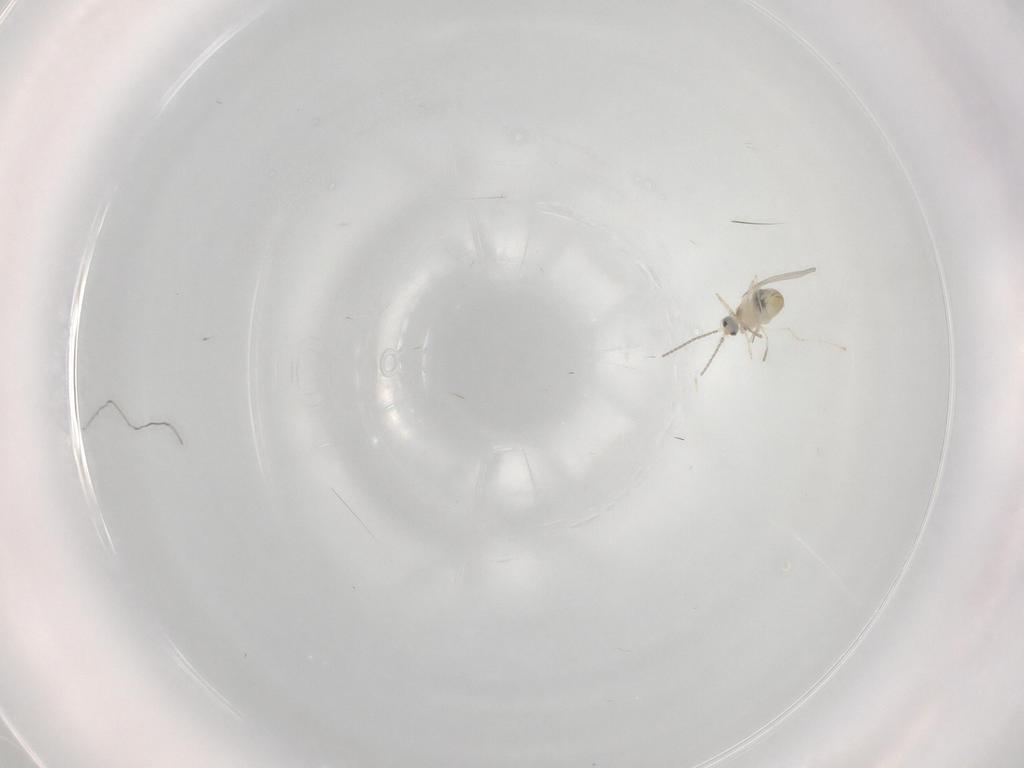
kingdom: Animalia
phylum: Arthropoda
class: Insecta
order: Diptera
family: Cecidomyiidae
